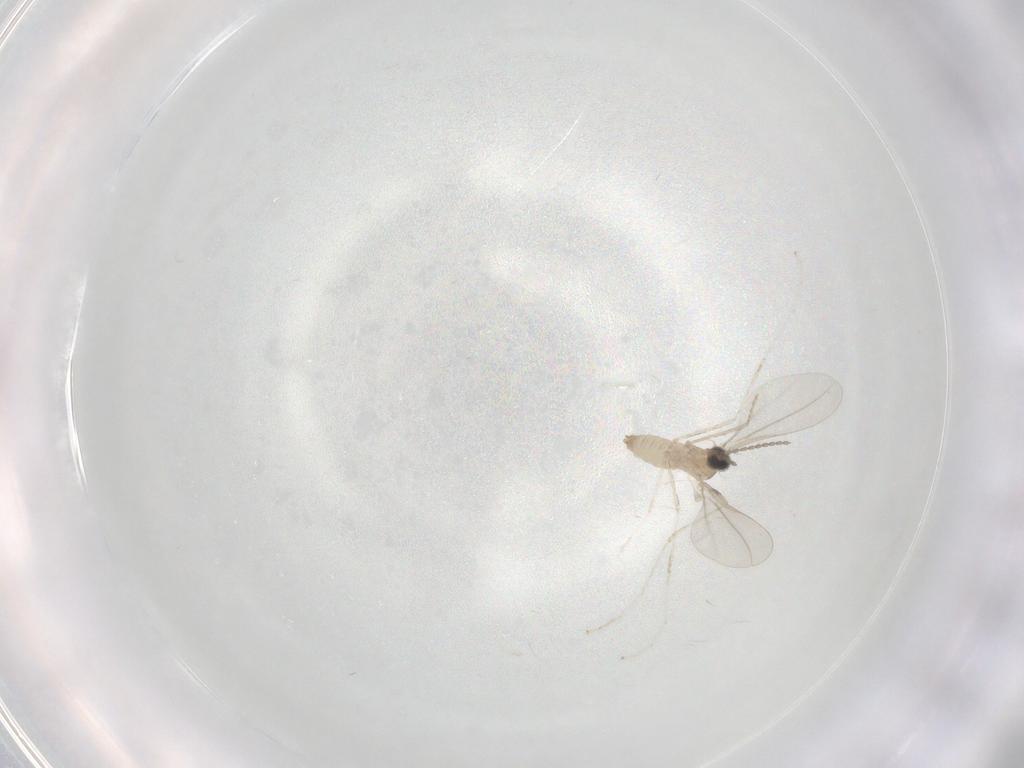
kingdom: Animalia
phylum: Arthropoda
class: Insecta
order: Diptera
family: Cecidomyiidae
